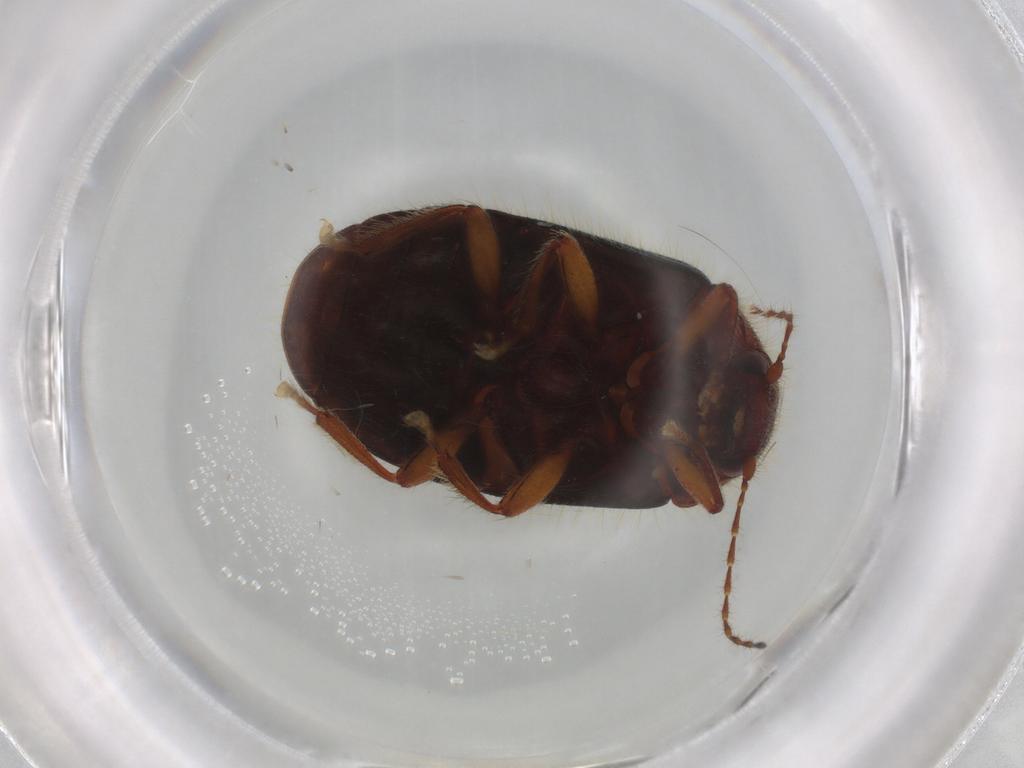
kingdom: Animalia
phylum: Arthropoda
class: Insecta
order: Coleoptera
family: Artematopodidae
